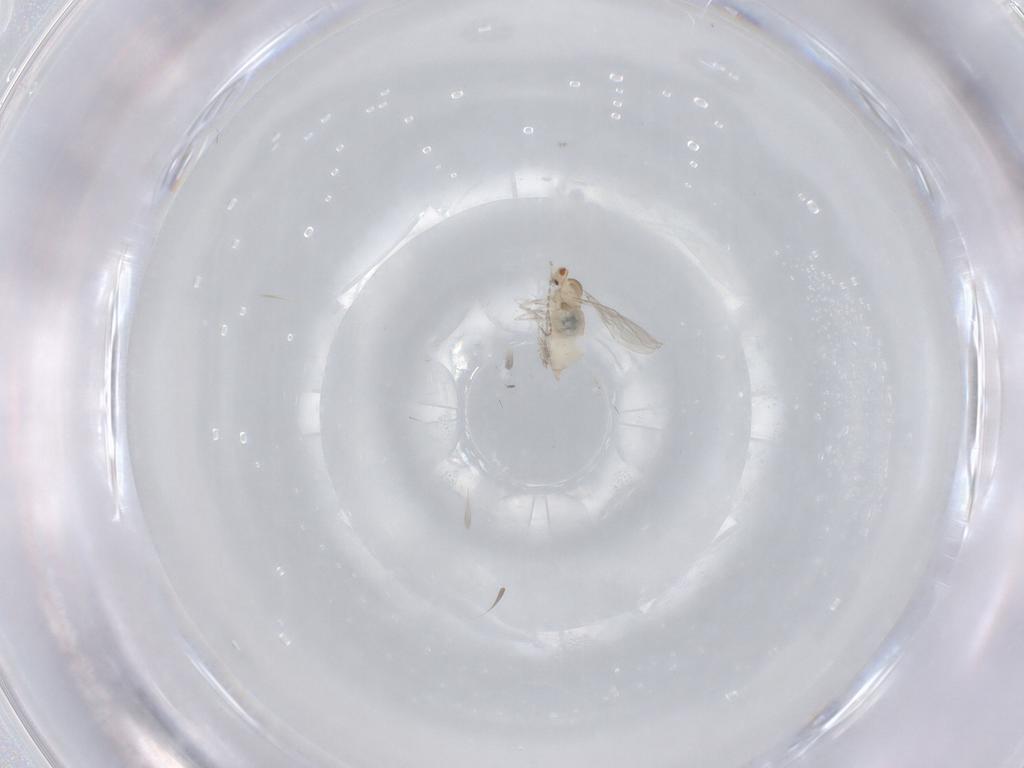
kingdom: Animalia
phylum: Arthropoda
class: Insecta
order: Diptera
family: Cecidomyiidae
